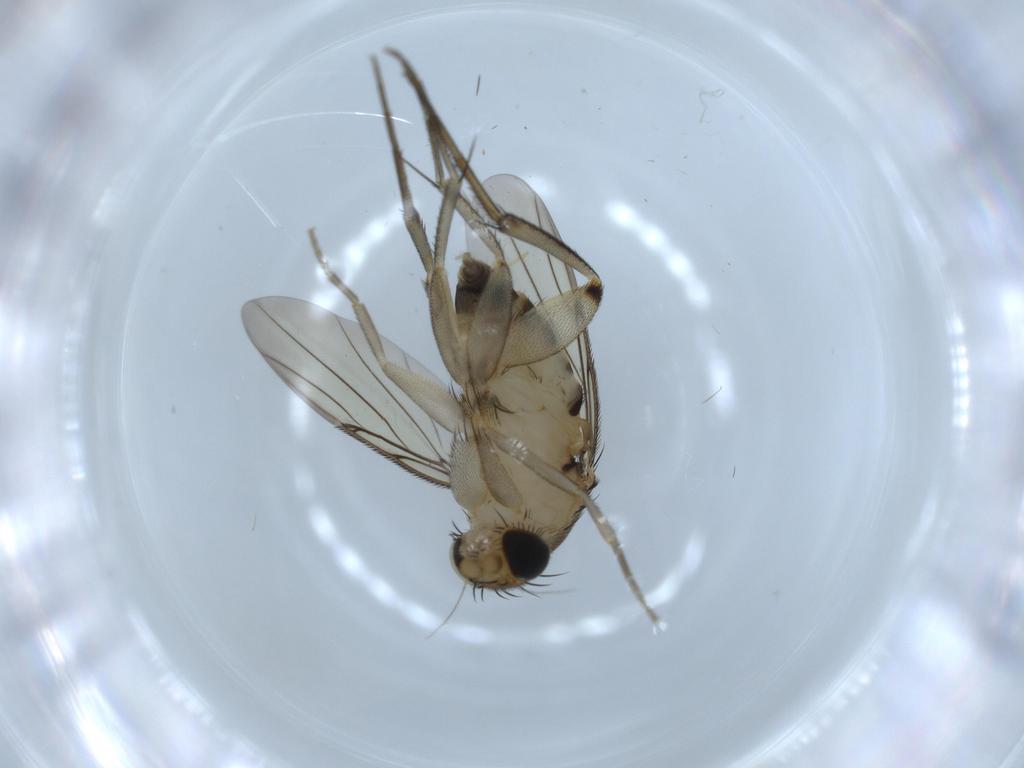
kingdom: Animalia
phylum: Arthropoda
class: Insecta
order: Diptera
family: Phoridae
